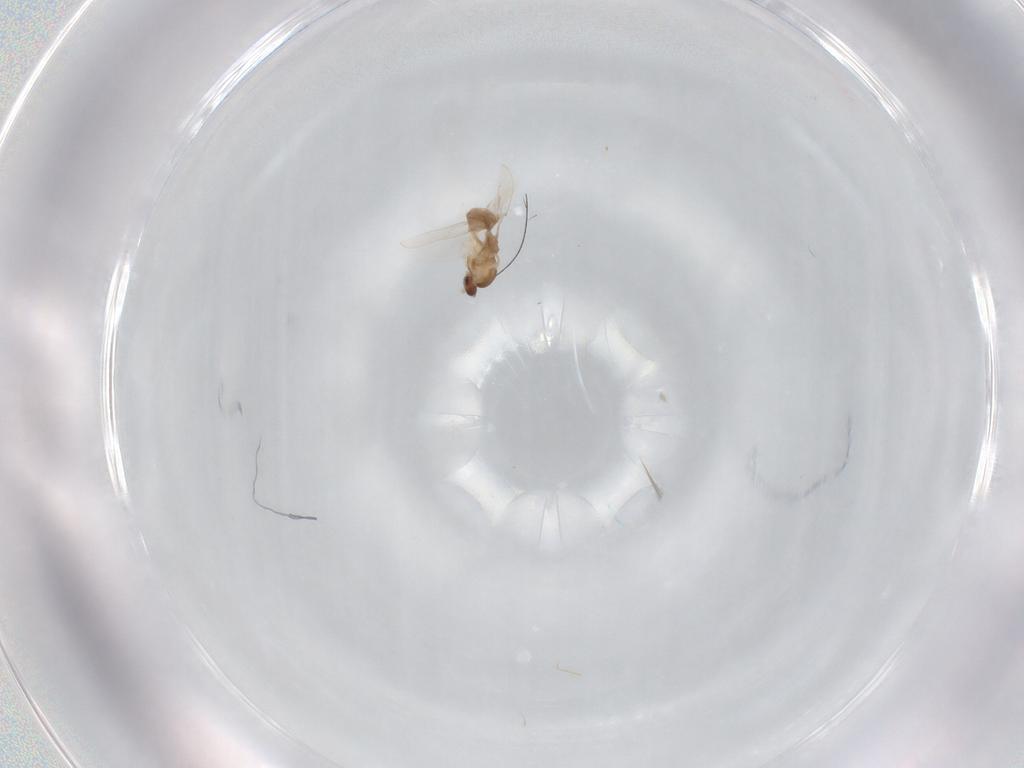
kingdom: Animalia
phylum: Arthropoda
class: Insecta
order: Diptera
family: Cecidomyiidae
